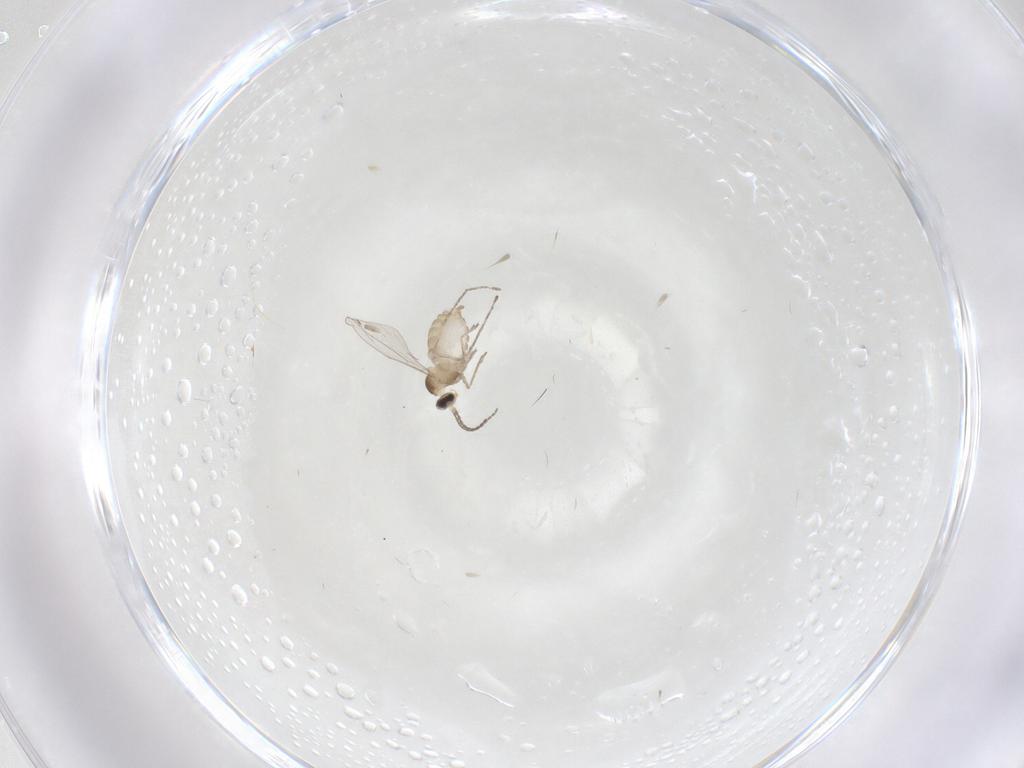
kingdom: Animalia
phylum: Arthropoda
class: Insecta
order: Diptera
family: Cecidomyiidae
